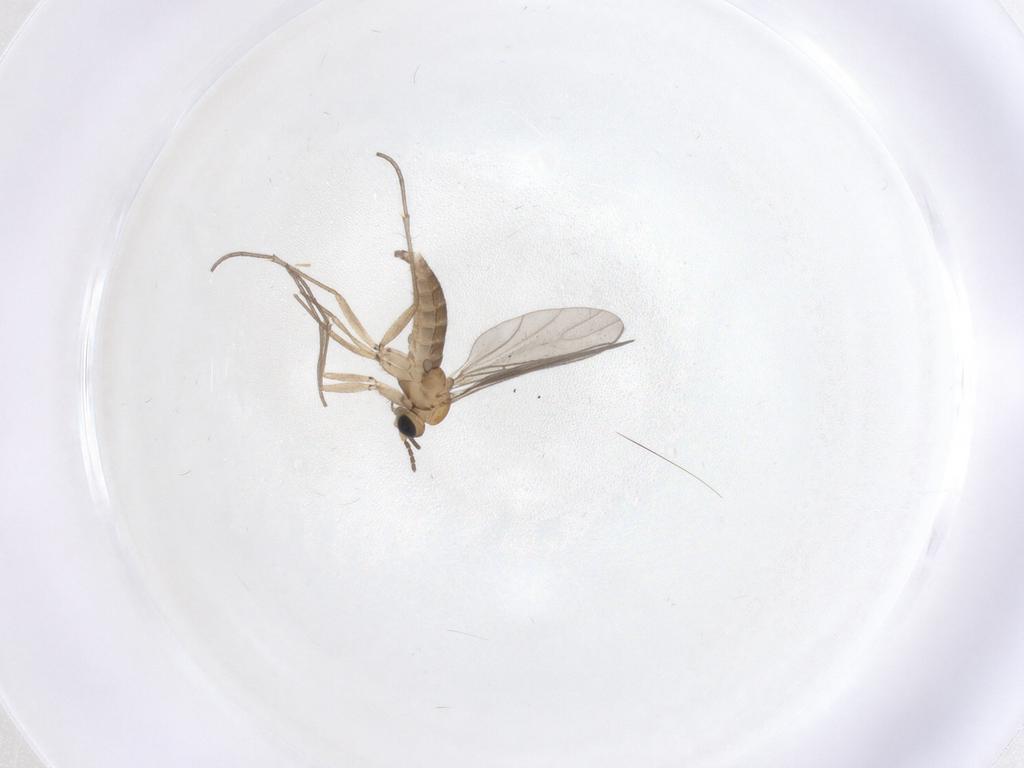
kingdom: Animalia
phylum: Arthropoda
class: Insecta
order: Diptera
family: Sciaridae
